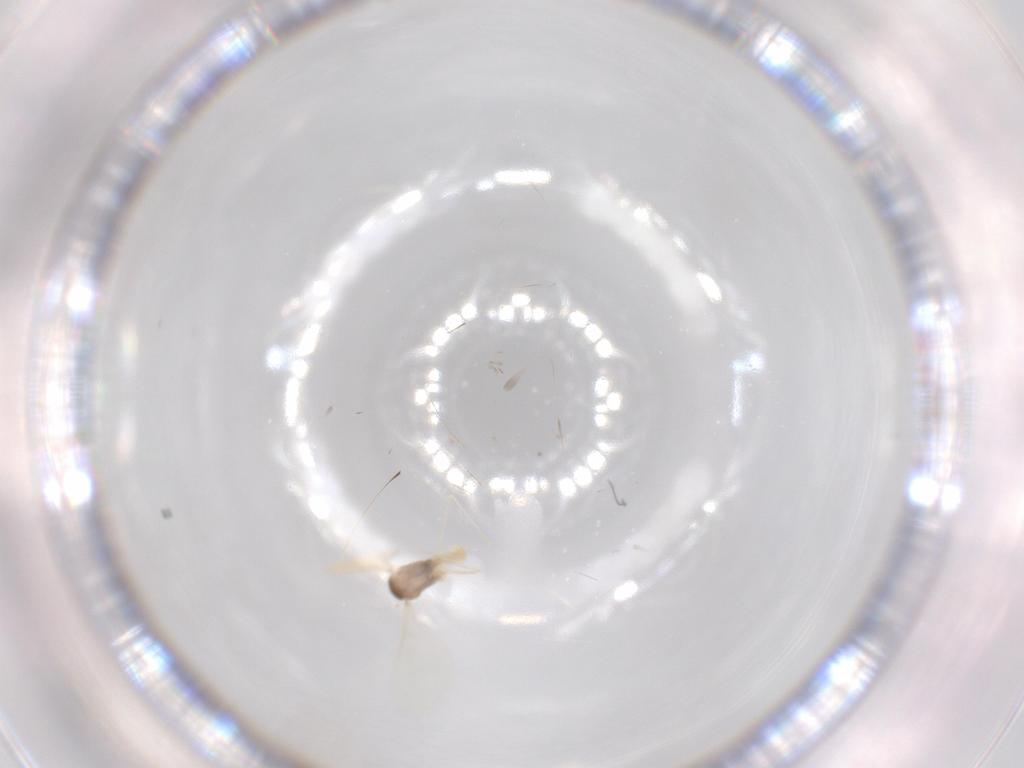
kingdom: Animalia
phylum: Arthropoda
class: Insecta
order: Diptera
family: Cecidomyiidae
